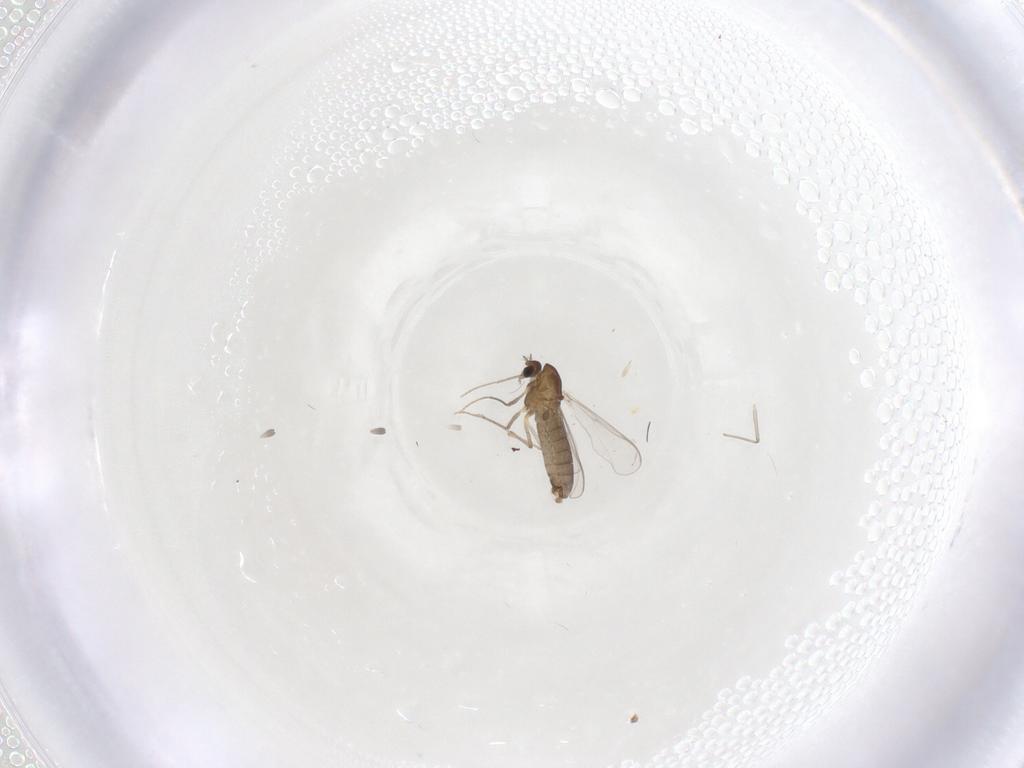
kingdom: Animalia
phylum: Arthropoda
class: Insecta
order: Diptera
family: Chironomidae
